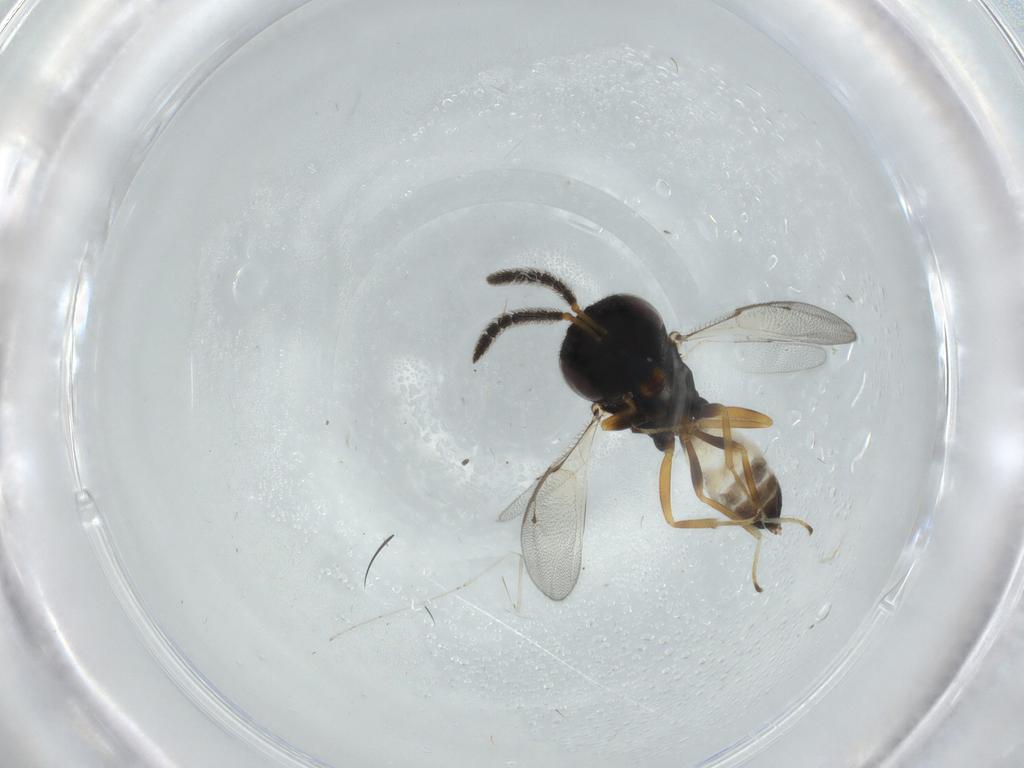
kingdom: Animalia
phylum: Arthropoda
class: Insecta
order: Hymenoptera
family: Pteromalidae
